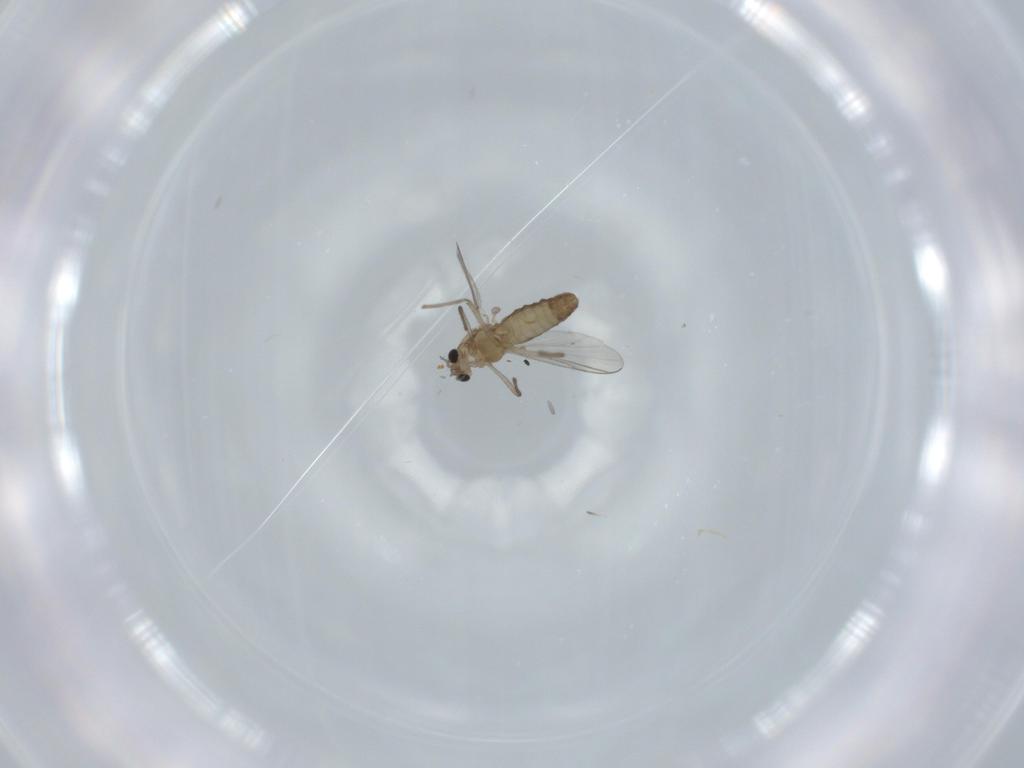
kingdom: Animalia
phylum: Arthropoda
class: Insecta
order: Diptera
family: Chironomidae
